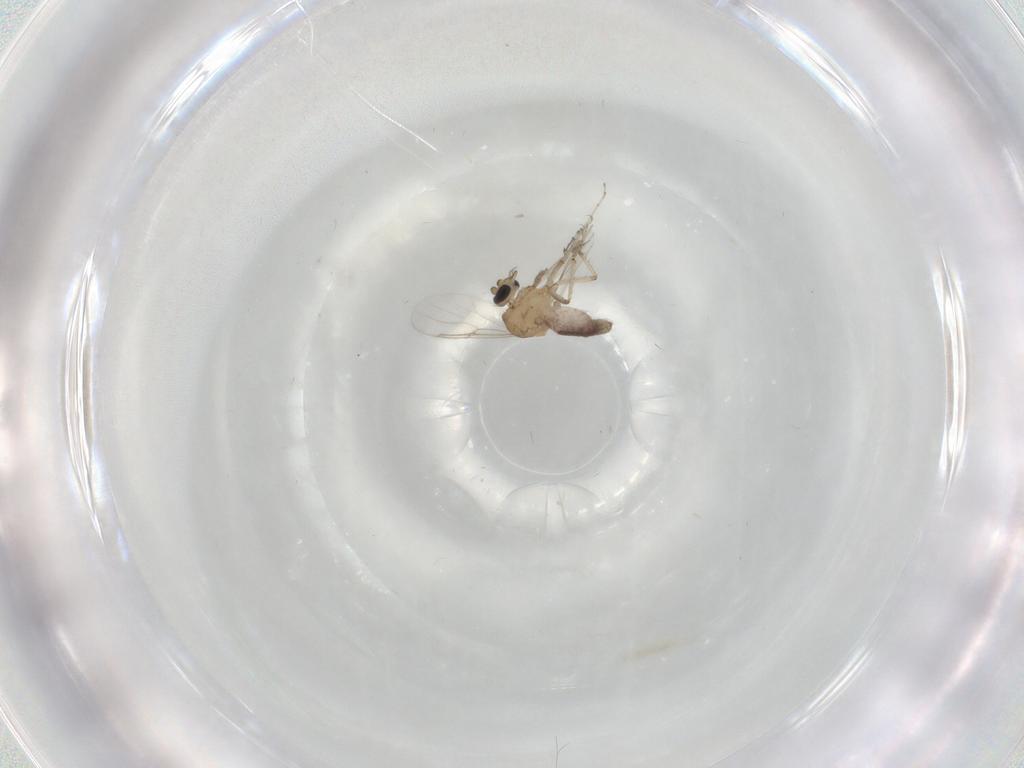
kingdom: Animalia
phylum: Arthropoda
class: Insecta
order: Diptera
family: Ceratopogonidae
